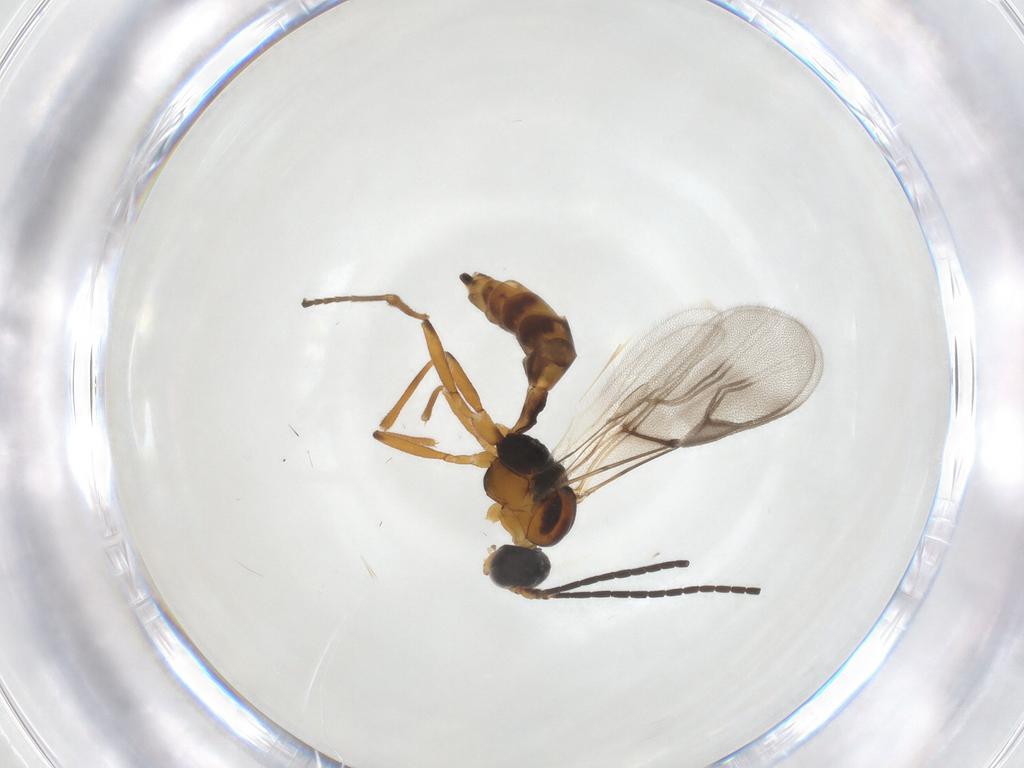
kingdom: Animalia
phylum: Arthropoda
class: Insecta
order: Hymenoptera
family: Braconidae
